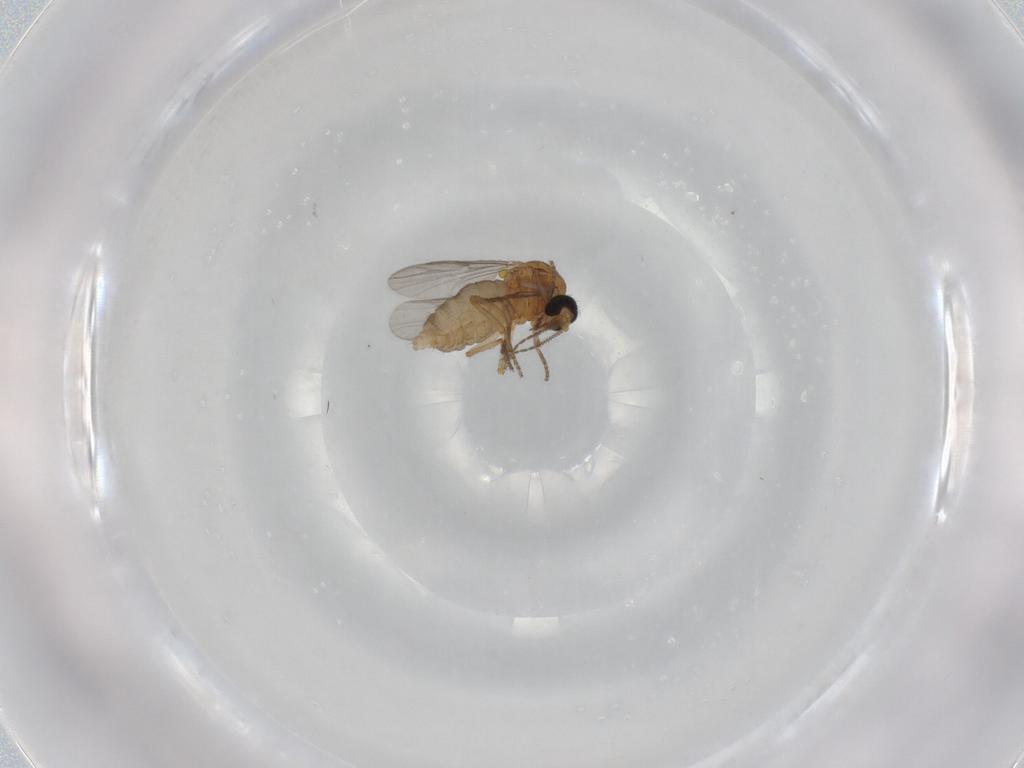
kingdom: Animalia
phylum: Arthropoda
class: Insecta
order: Diptera
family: Ceratopogonidae
